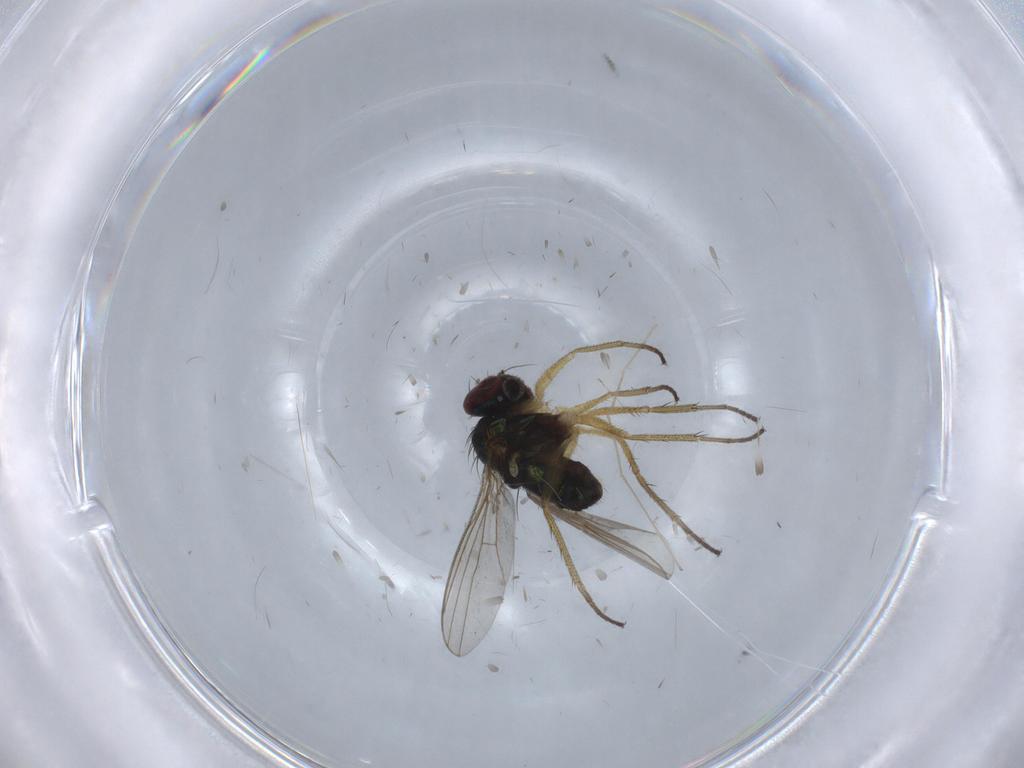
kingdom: Animalia
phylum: Arthropoda
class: Insecta
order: Diptera
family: Dolichopodidae
